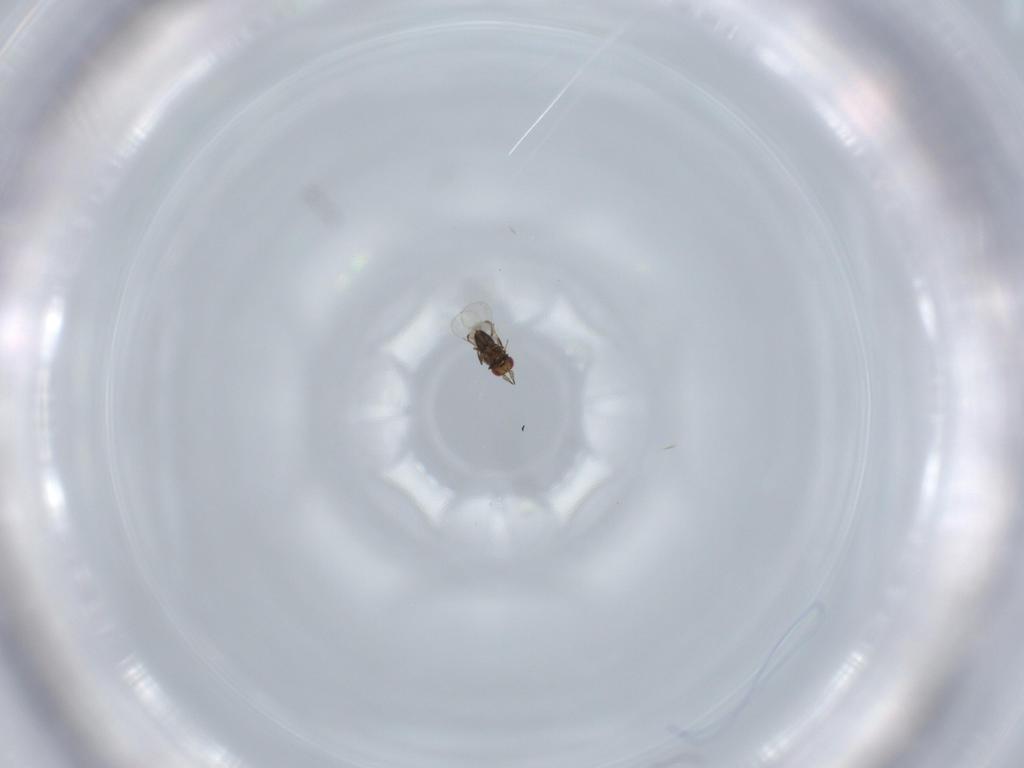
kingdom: Animalia
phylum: Arthropoda
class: Insecta
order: Hymenoptera
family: Trichogrammatidae
